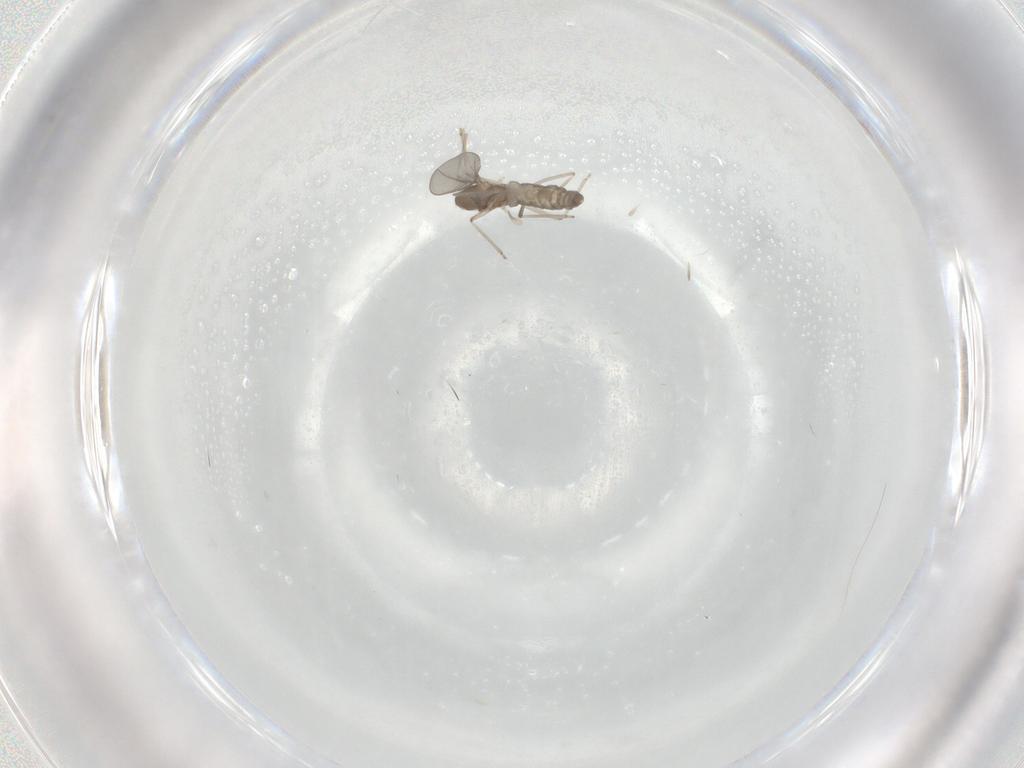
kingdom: Animalia
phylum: Arthropoda
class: Insecta
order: Diptera
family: Cecidomyiidae
